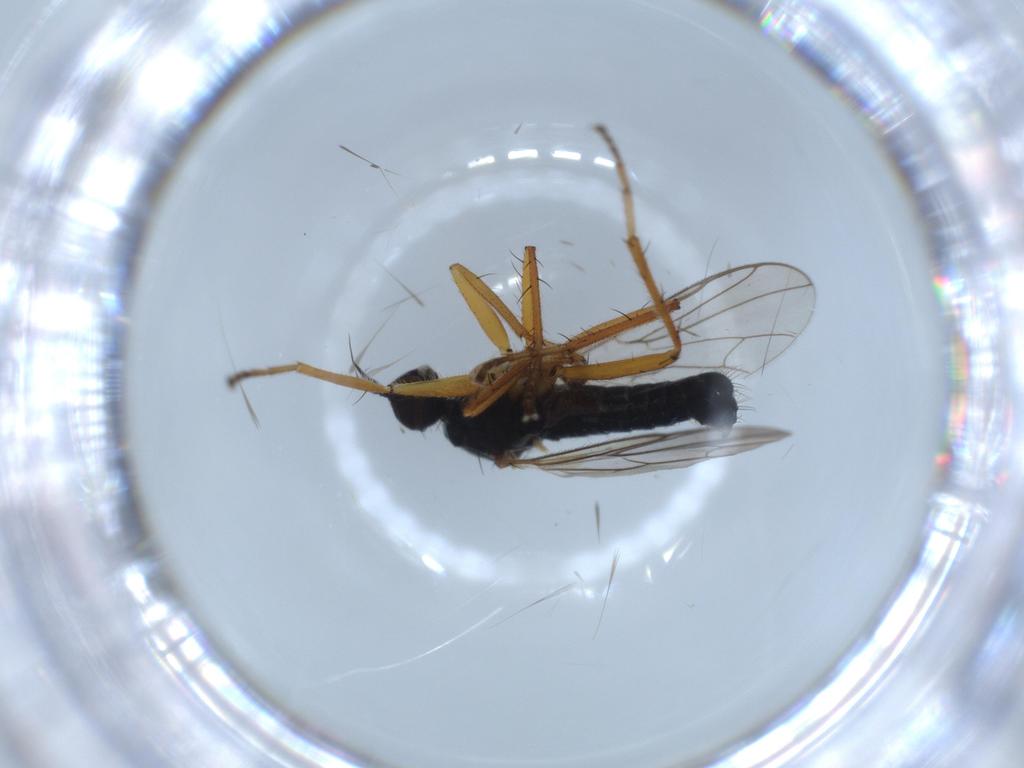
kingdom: Animalia
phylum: Arthropoda
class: Insecta
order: Diptera
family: Hybotidae
